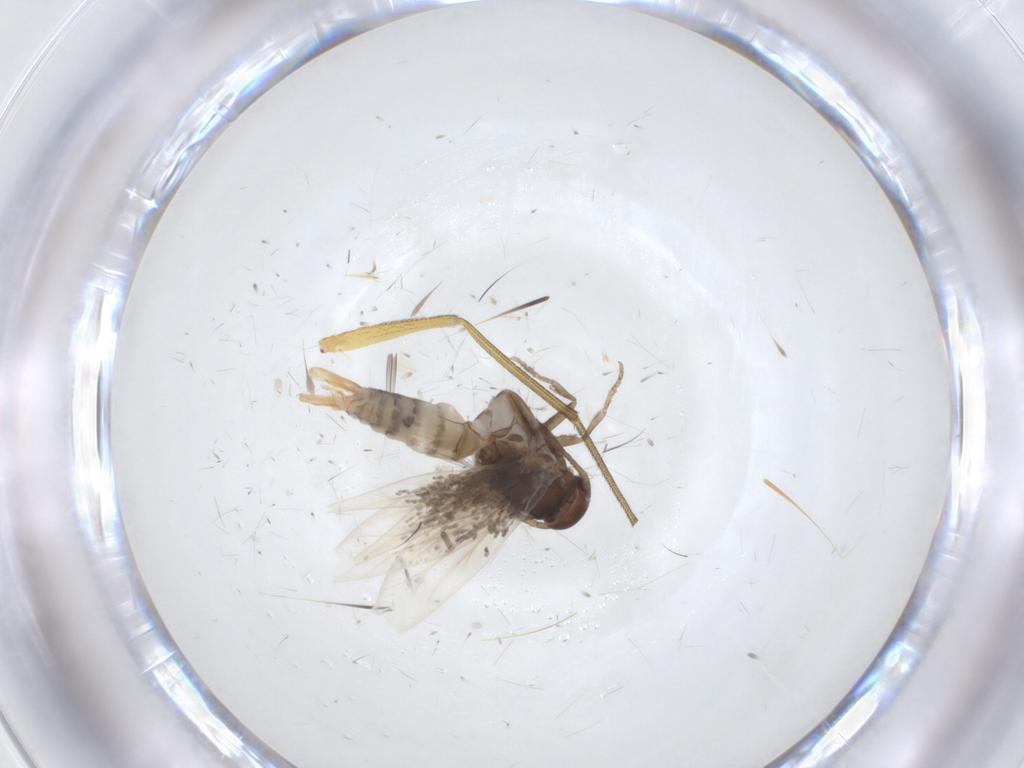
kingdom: Animalia
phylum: Arthropoda
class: Insecta
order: Lepidoptera
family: Elachistidae
